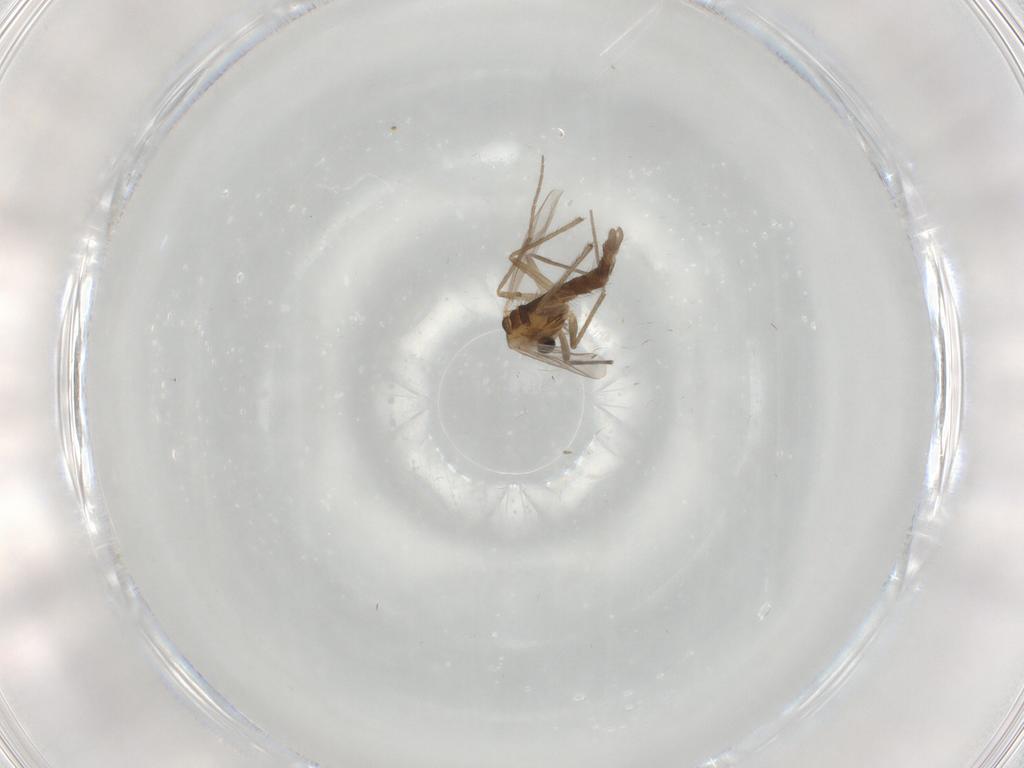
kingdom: Animalia
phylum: Arthropoda
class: Insecta
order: Diptera
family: Chironomidae
